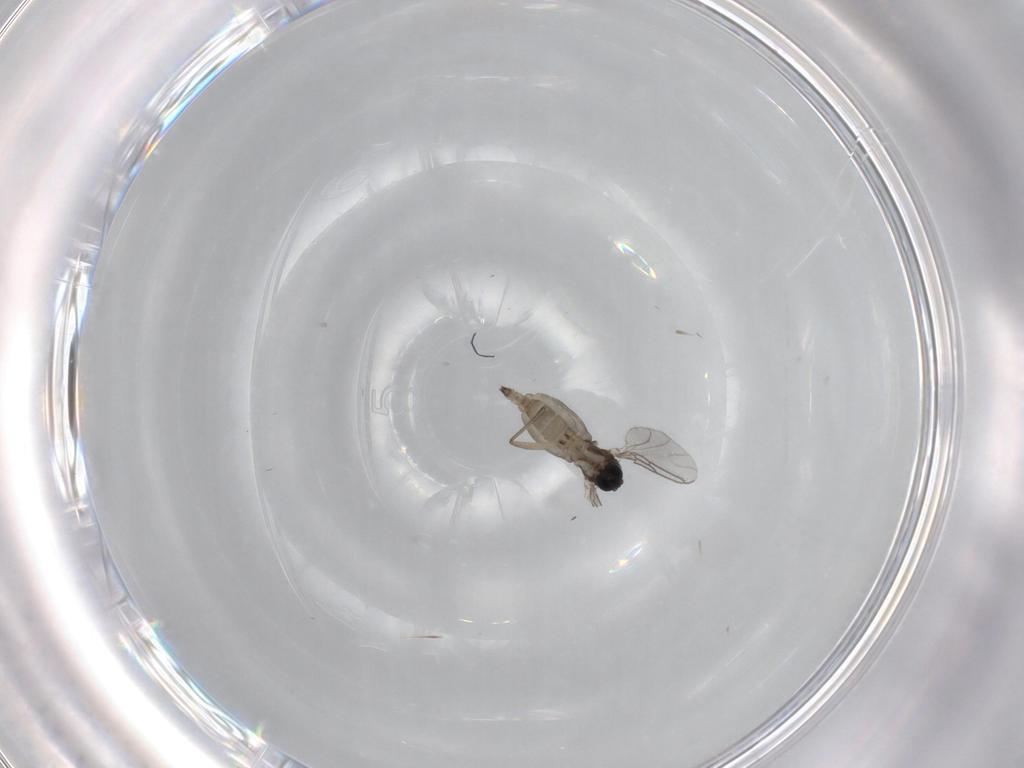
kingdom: Animalia
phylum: Arthropoda
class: Insecta
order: Diptera
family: Sciaridae
